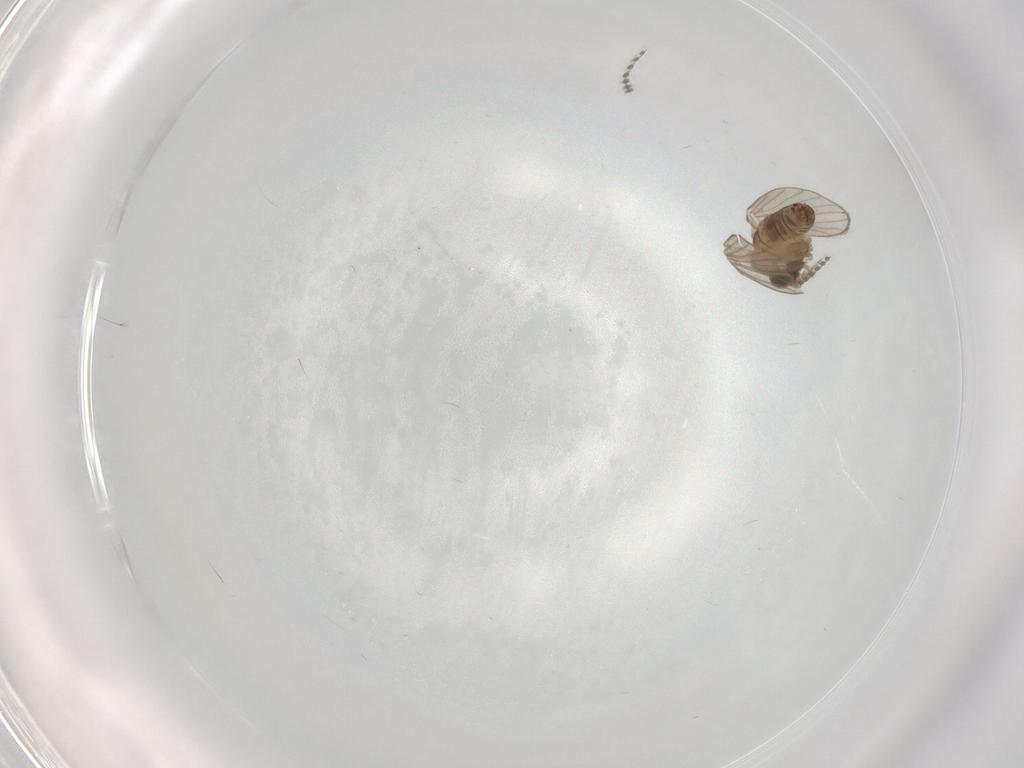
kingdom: Animalia
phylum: Arthropoda
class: Insecta
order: Diptera
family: Psychodidae
